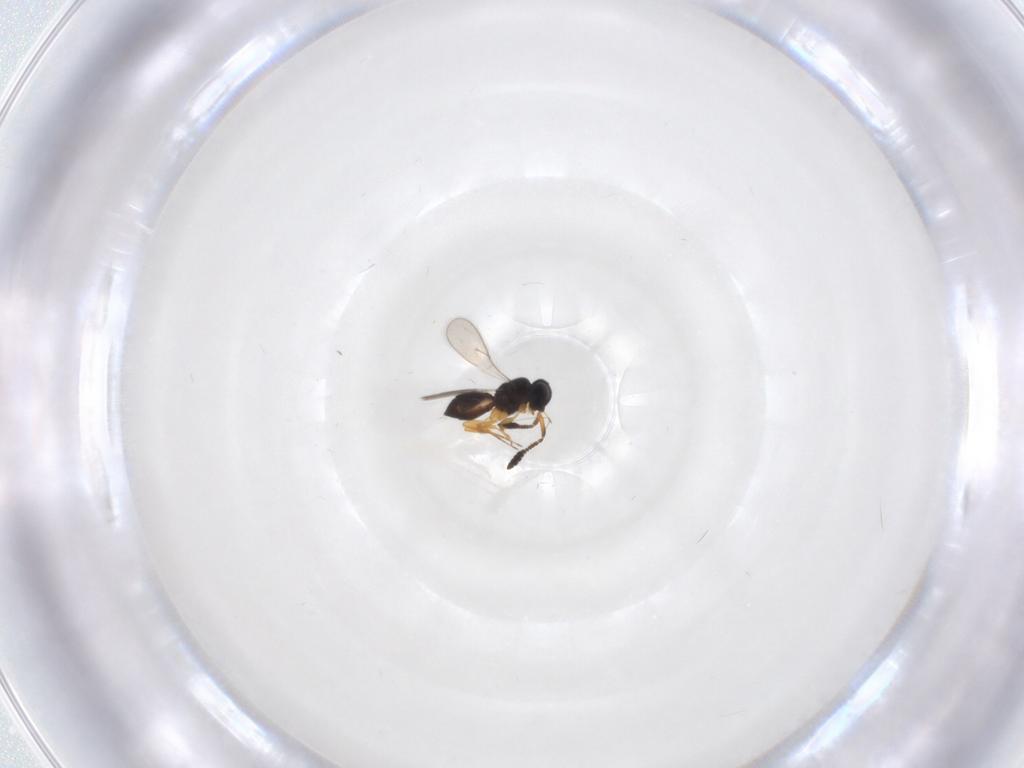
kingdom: Animalia
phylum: Arthropoda
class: Insecta
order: Hymenoptera
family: Scelionidae
